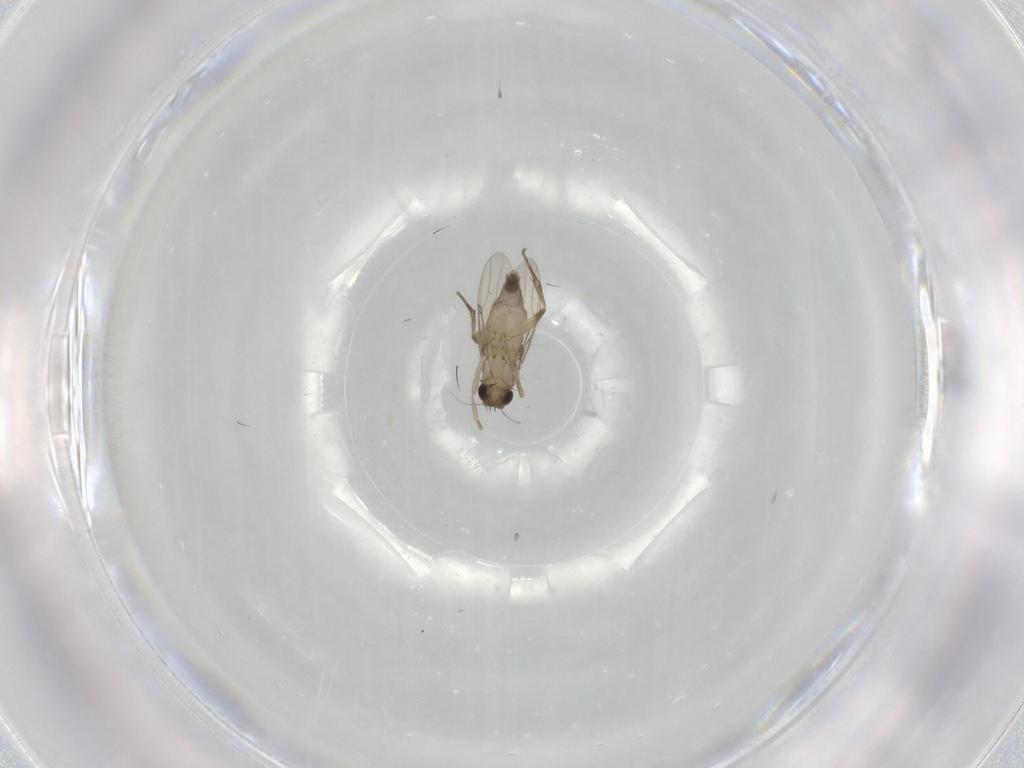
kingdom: Animalia
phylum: Arthropoda
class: Insecta
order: Diptera
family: Phoridae
